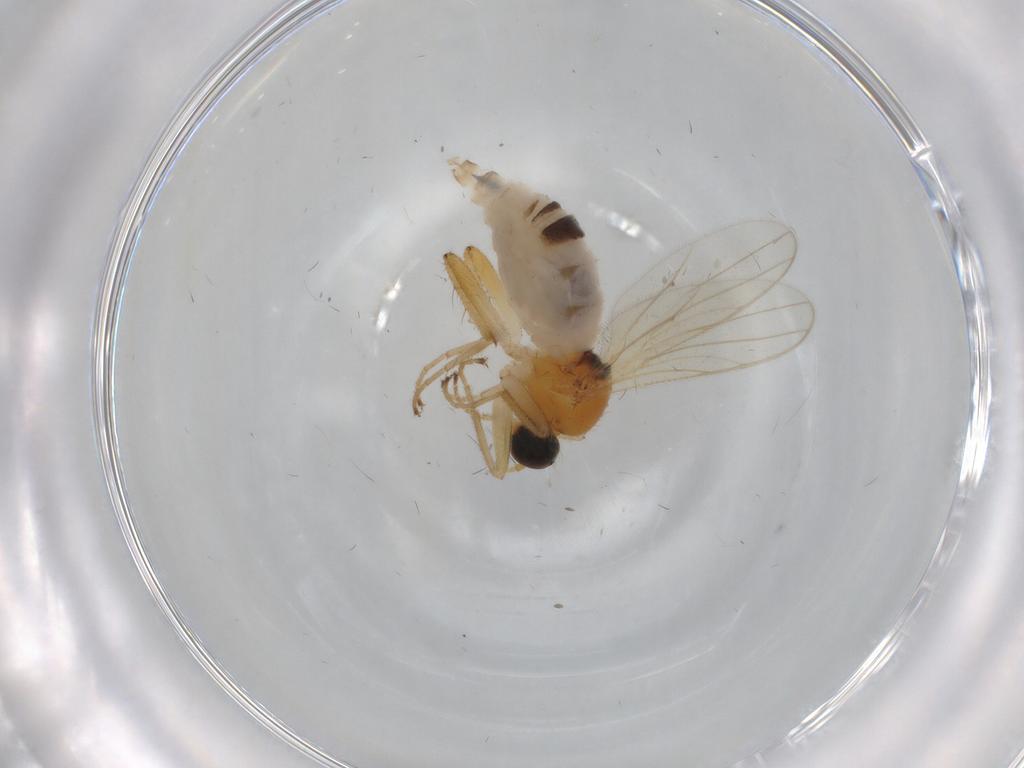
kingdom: Animalia
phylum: Arthropoda
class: Insecta
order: Diptera
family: Hybotidae
